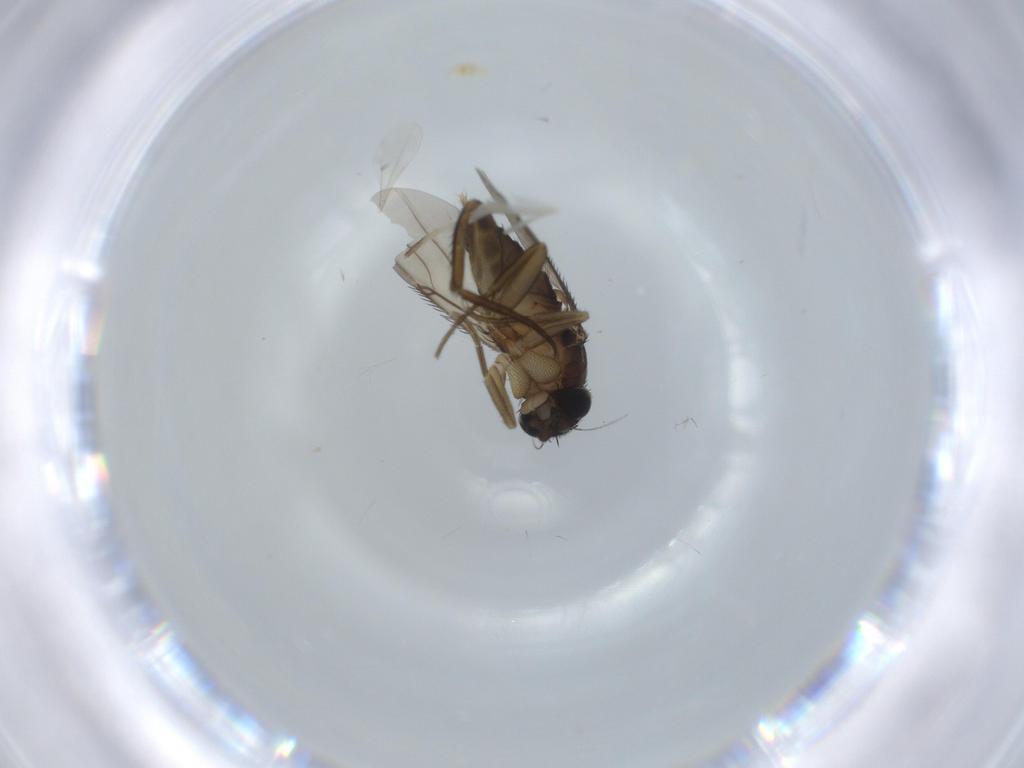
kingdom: Animalia
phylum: Arthropoda
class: Insecta
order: Diptera
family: Phoridae
